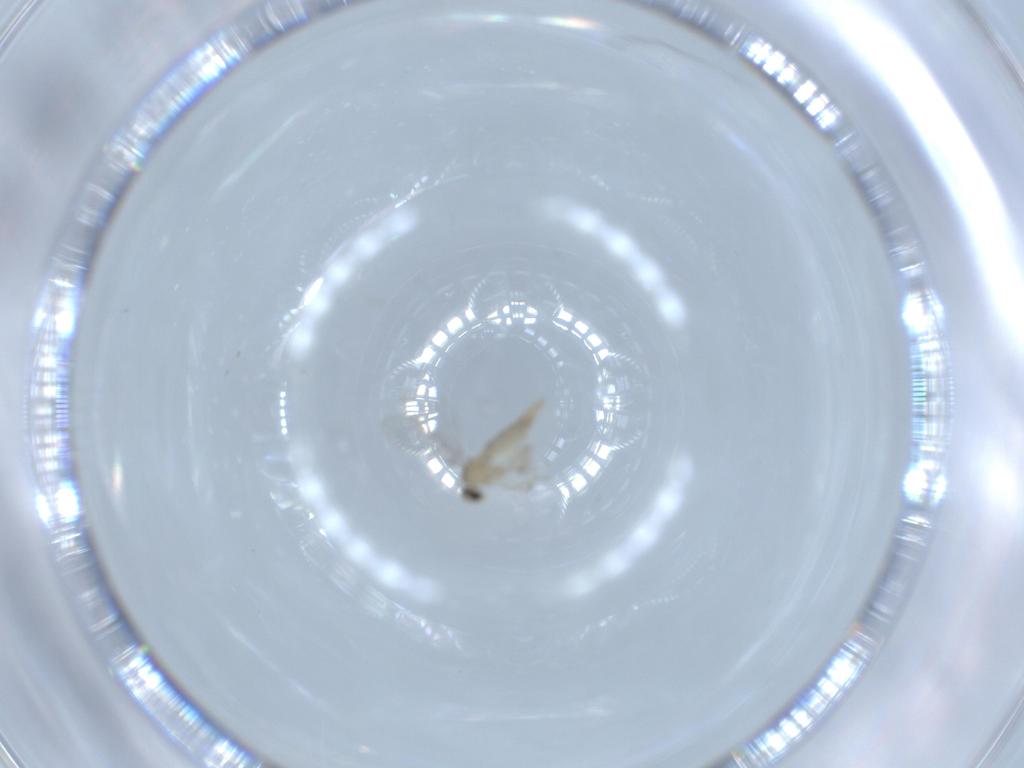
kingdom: Animalia
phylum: Arthropoda
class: Insecta
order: Diptera
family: Cecidomyiidae
